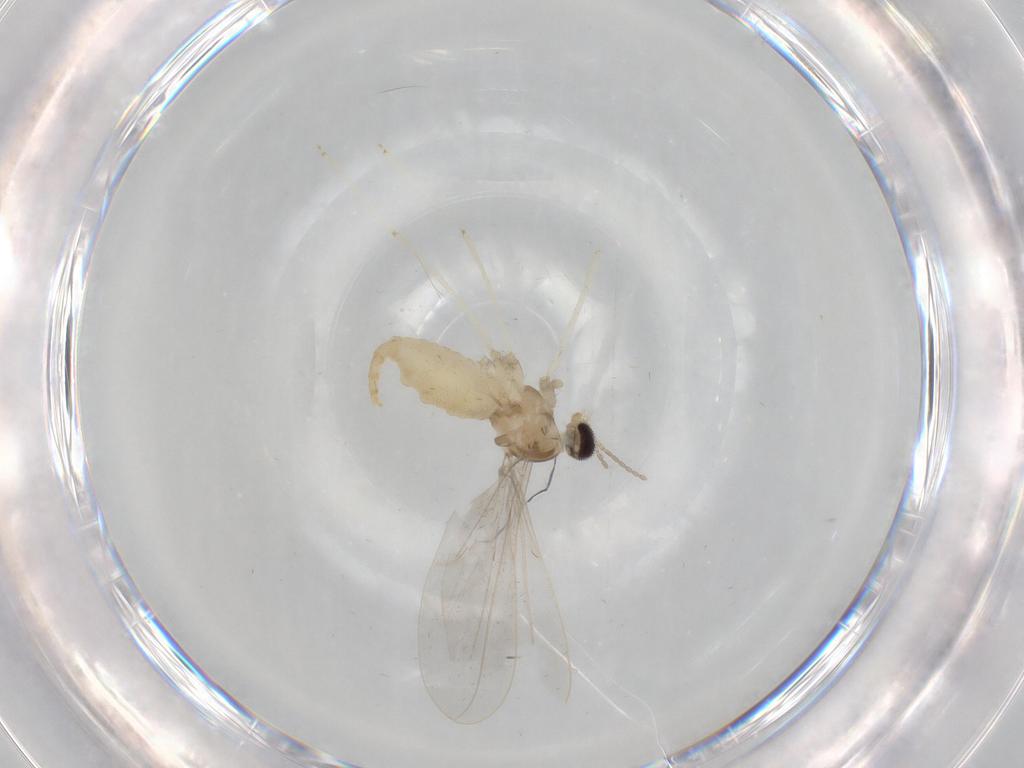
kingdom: Animalia
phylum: Arthropoda
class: Insecta
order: Diptera
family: Cecidomyiidae
